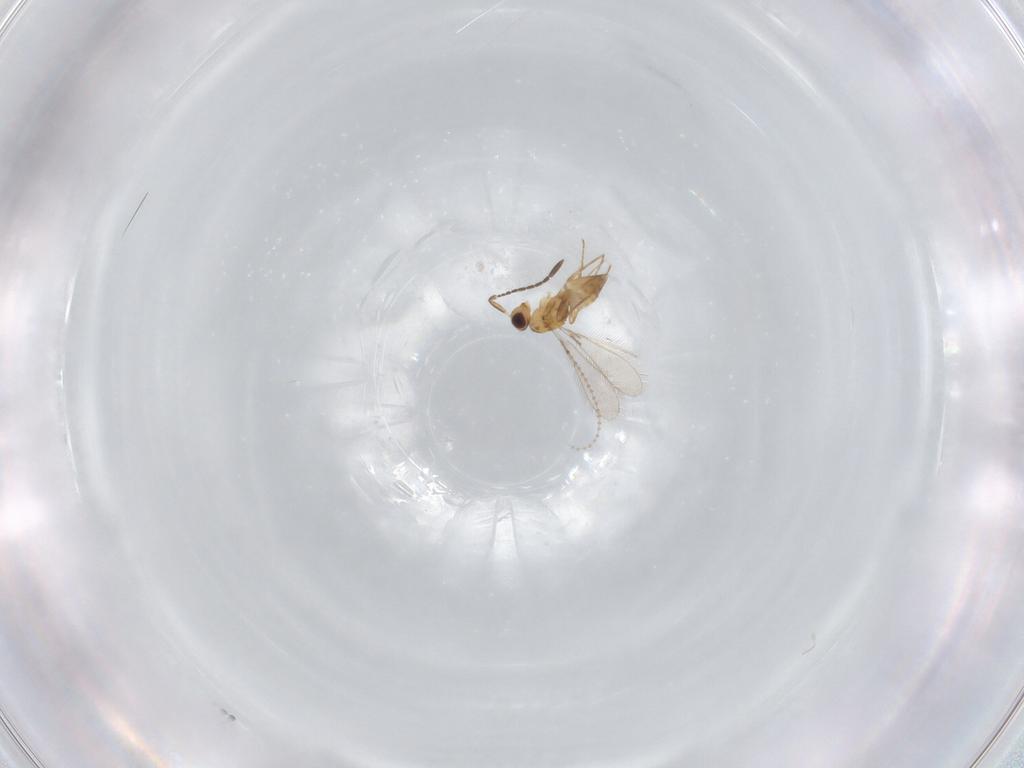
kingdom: Animalia
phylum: Arthropoda
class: Insecta
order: Hymenoptera
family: Mymaridae
